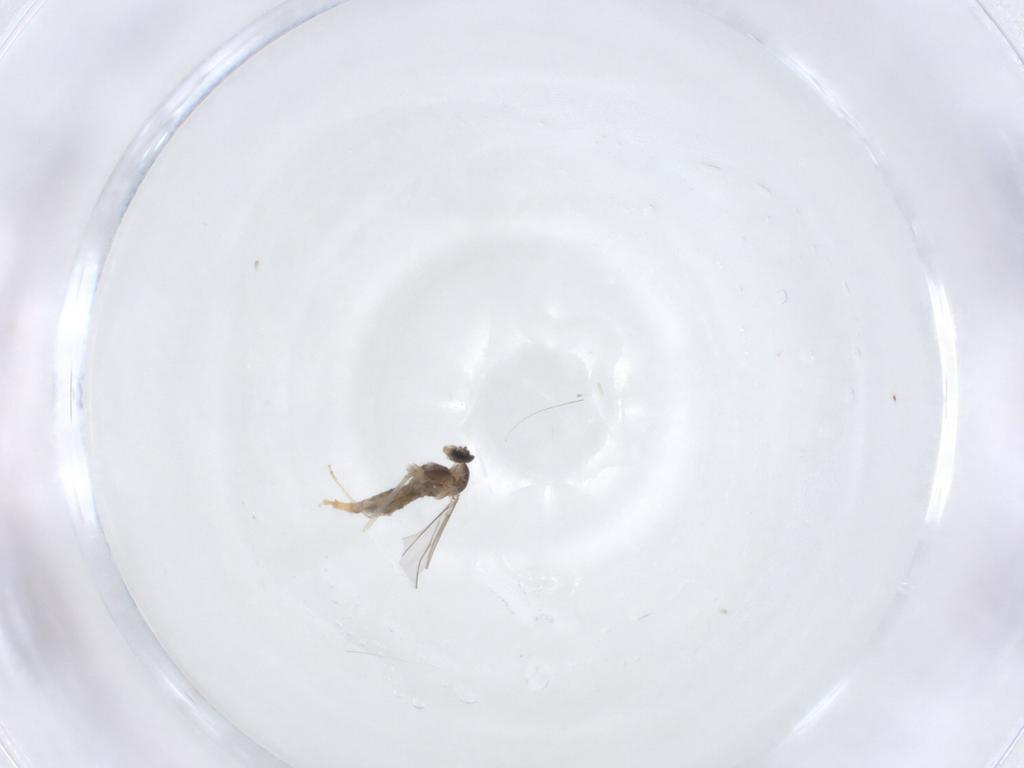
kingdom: Animalia
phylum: Arthropoda
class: Insecta
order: Diptera
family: Cecidomyiidae
